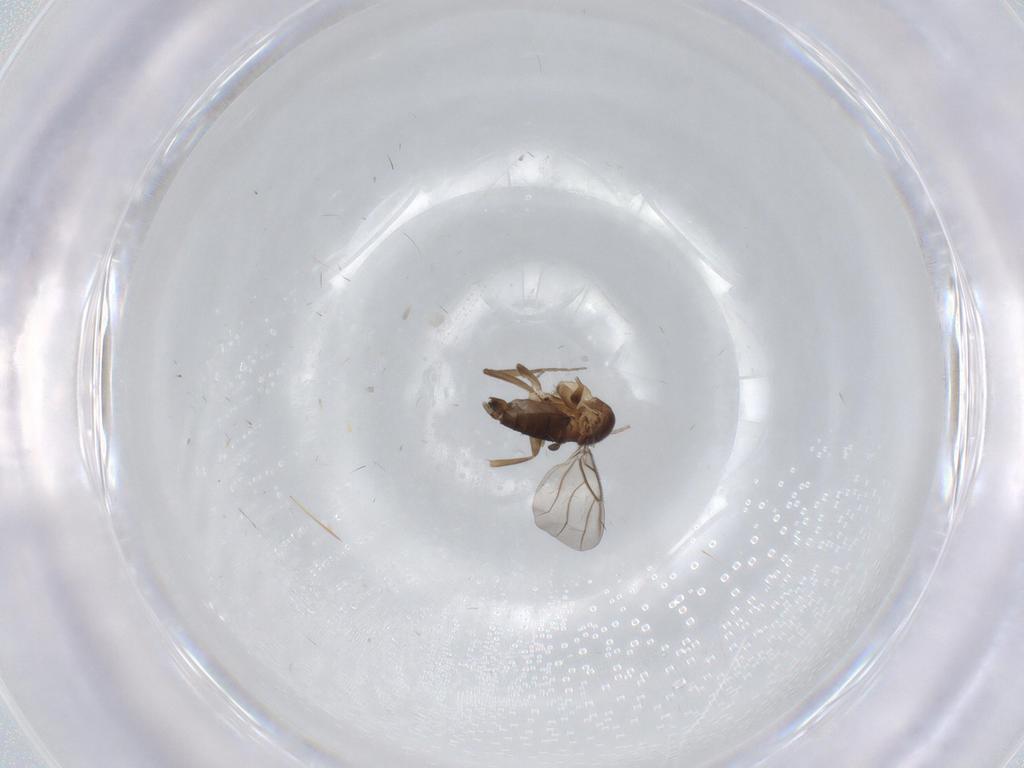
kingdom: Animalia
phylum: Arthropoda
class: Insecta
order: Diptera
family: Phoridae
